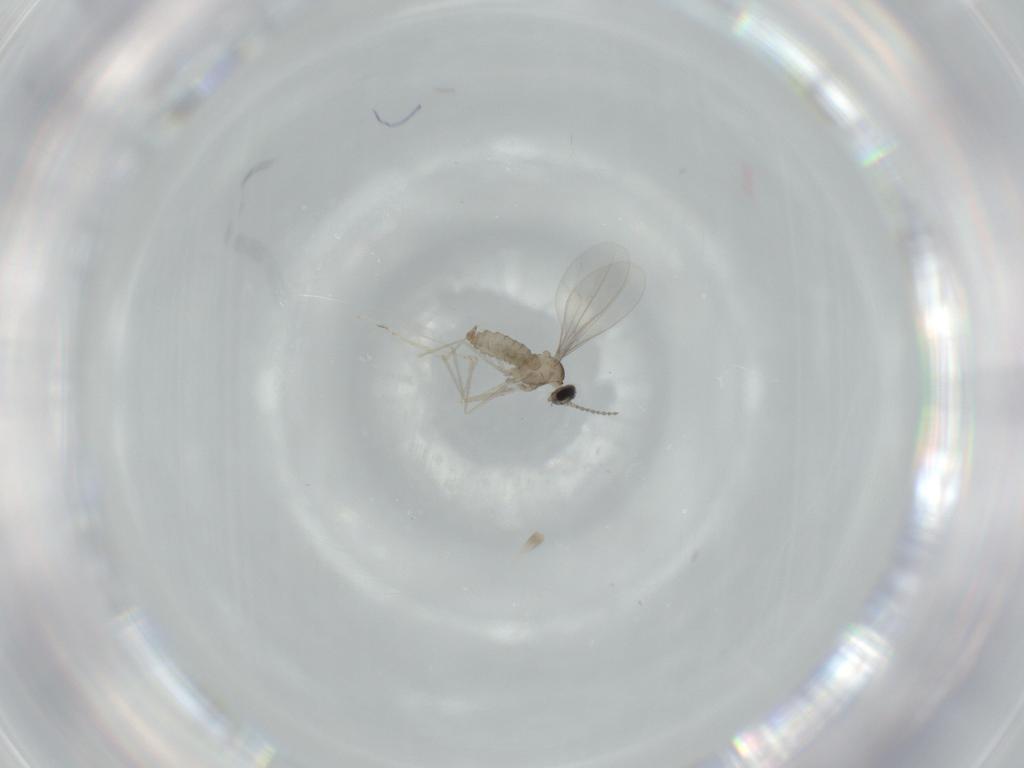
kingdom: Animalia
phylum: Arthropoda
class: Insecta
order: Diptera
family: Cecidomyiidae
